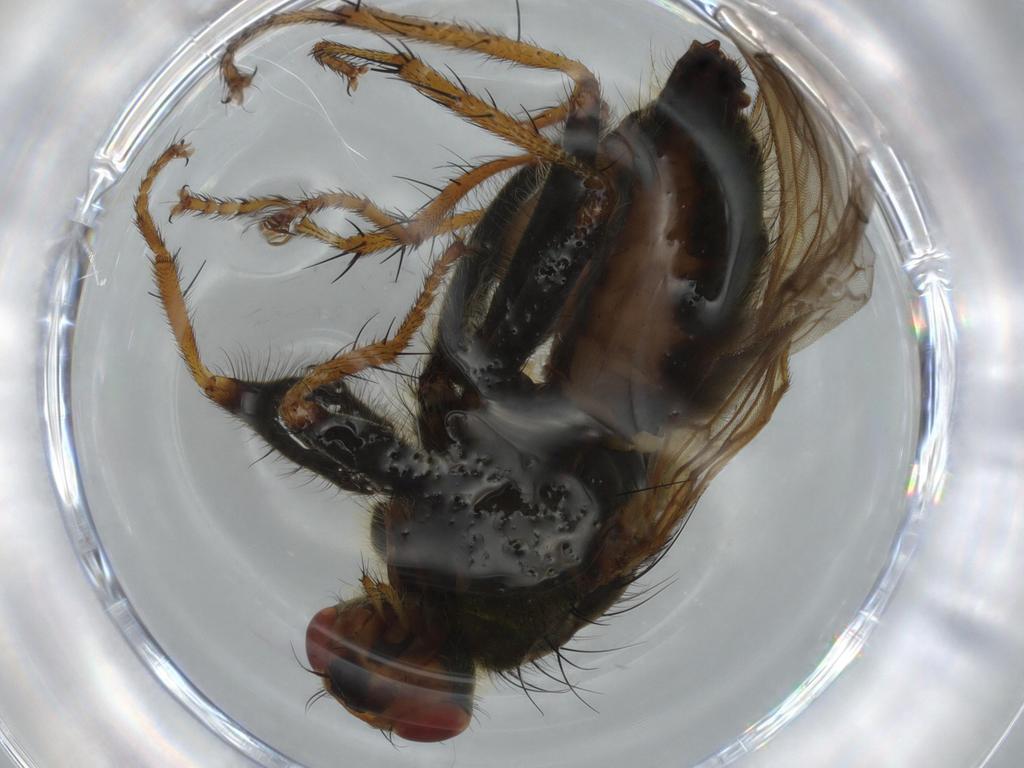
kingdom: Animalia
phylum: Arthropoda
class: Insecta
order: Diptera
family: Scathophagidae
